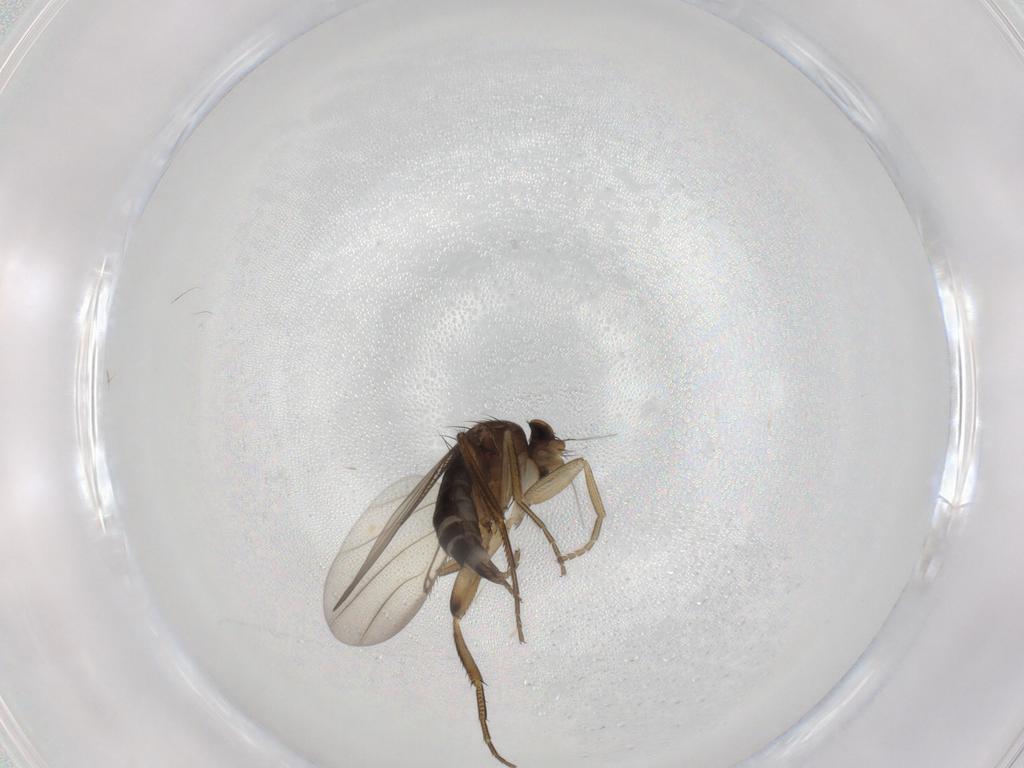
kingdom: Animalia
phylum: Arthropoda
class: Insecta
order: Diptera
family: Phoridae
